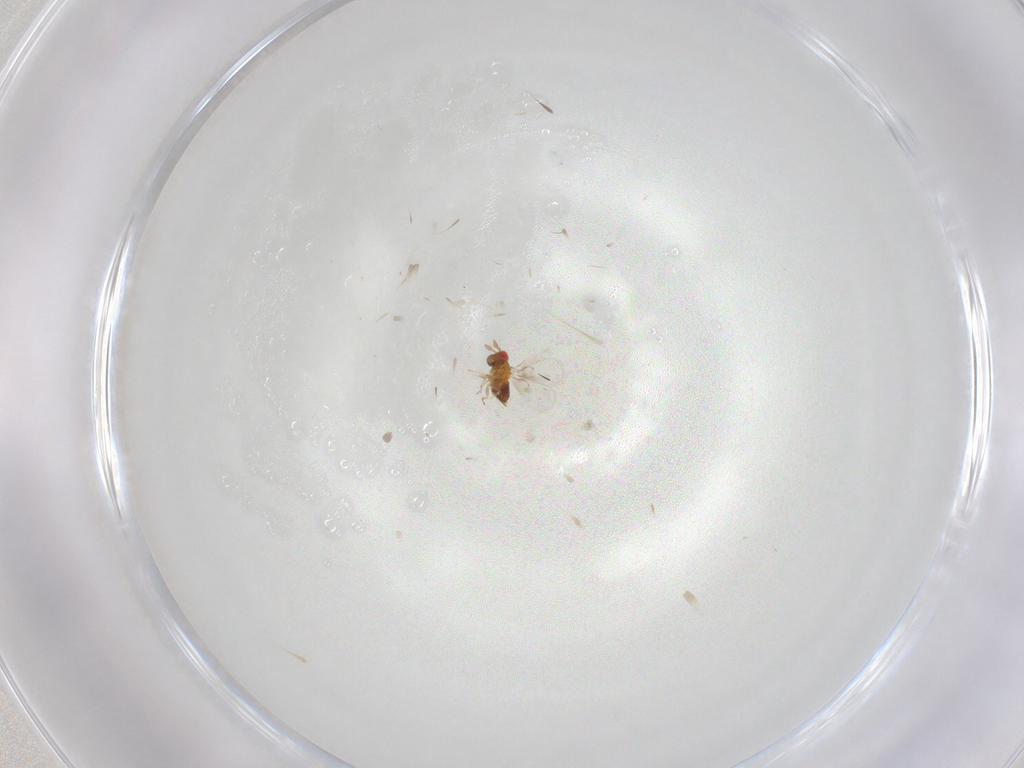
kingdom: Animalia
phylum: Arthropoda
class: Insecta
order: Hymenoptera
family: Trichogrammatidae
